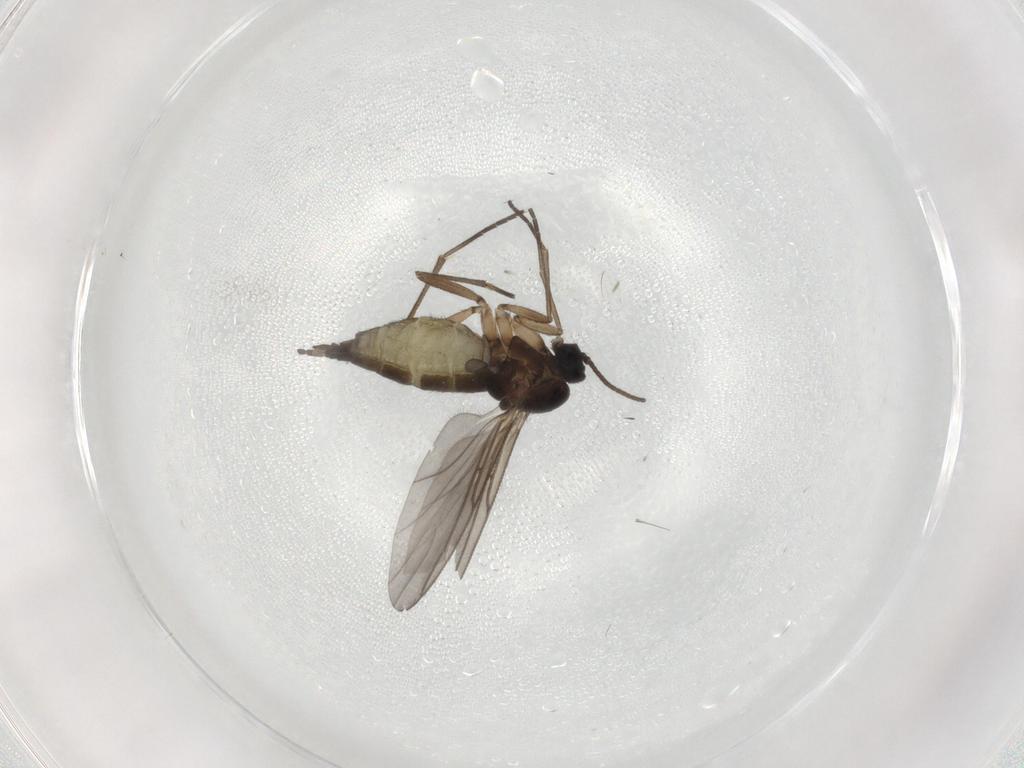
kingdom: Animalia
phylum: Arthropoda
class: Insecta
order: Diptera
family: Sciaridae
